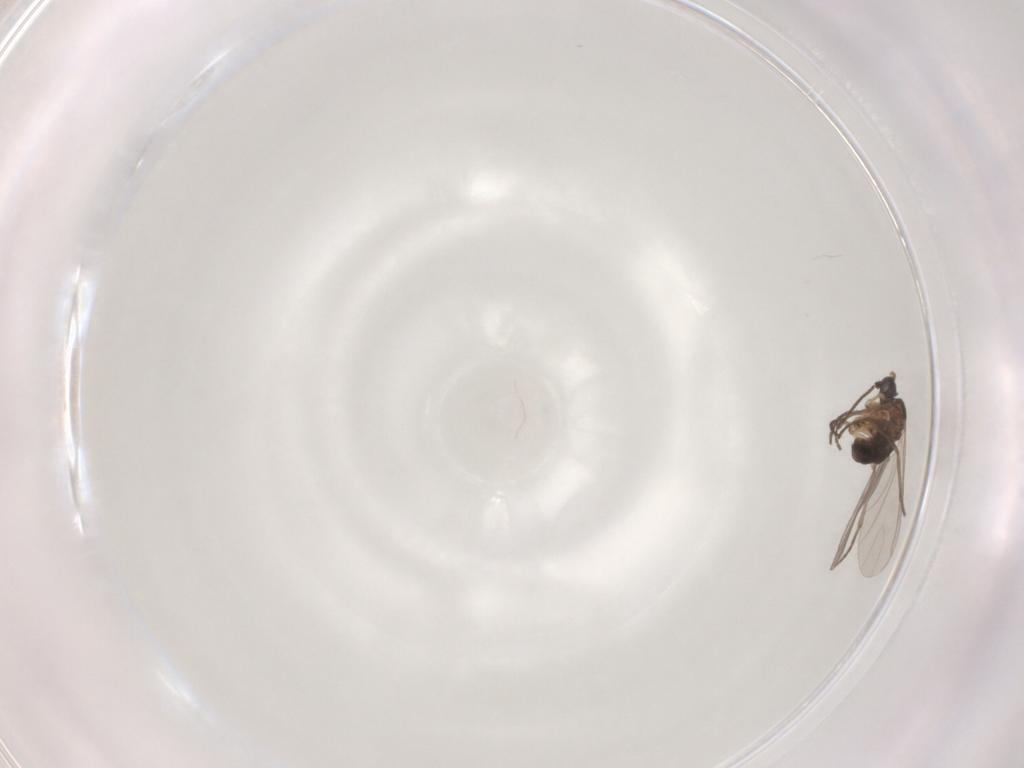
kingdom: Animalia
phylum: Arthropoda
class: Insecta
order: Diptera
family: Sciaridae
